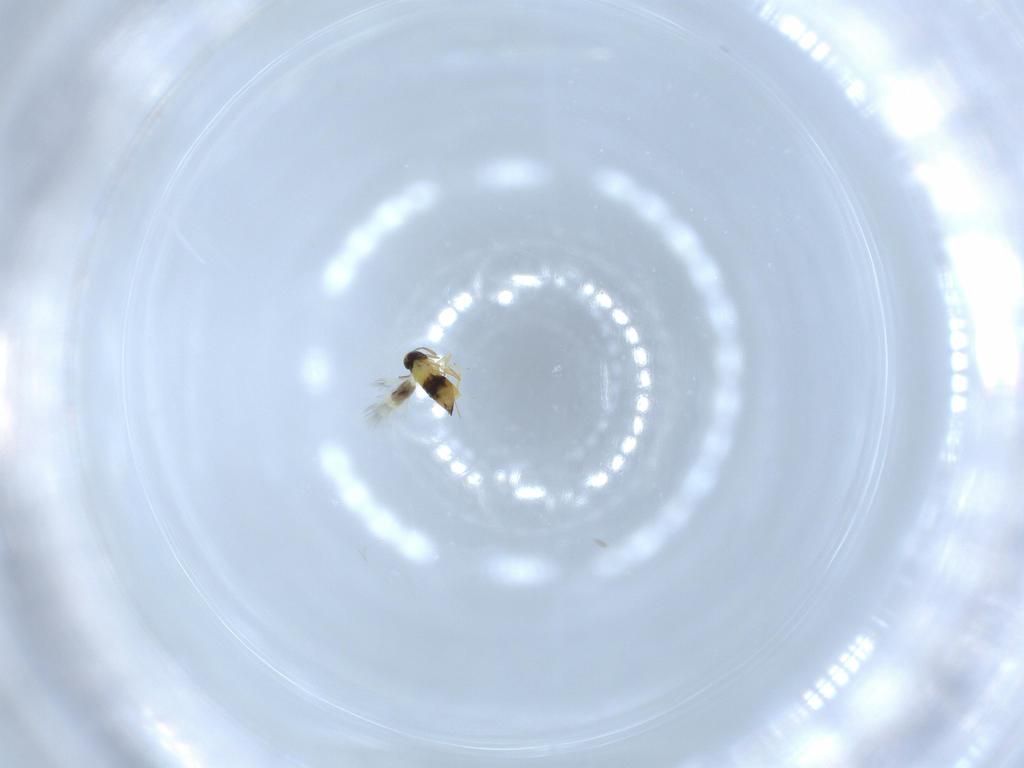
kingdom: Animalia
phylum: Arthropoda
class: Insecta
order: Hymenoptera
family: Signiphoridae
